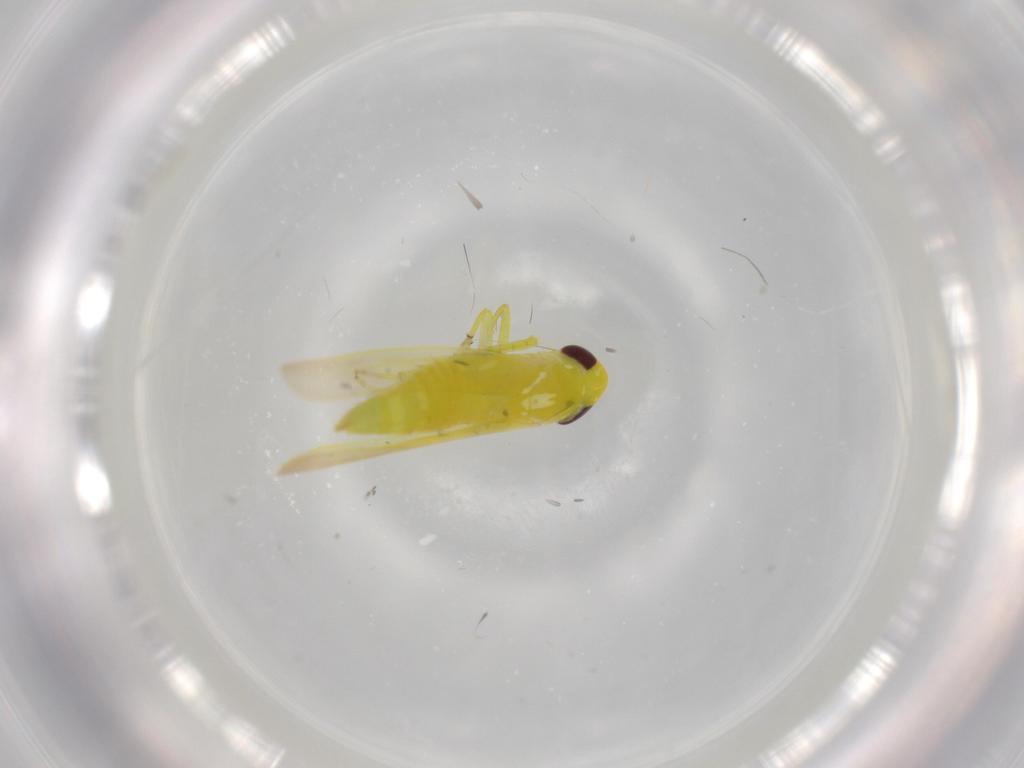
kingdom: Animalia
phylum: Arthropoda
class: Insecta
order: Hemiptera
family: Cicadellidae
